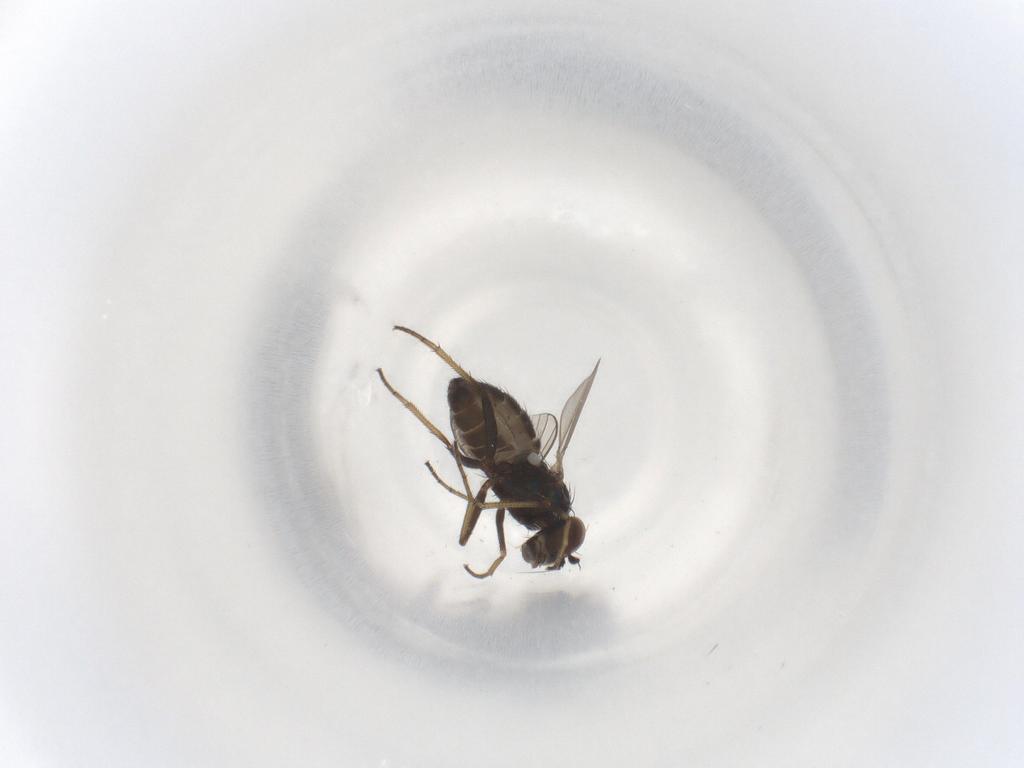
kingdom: Animalia
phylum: Arthropoda
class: Insecta
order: Diptera
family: Dolichopodidae
